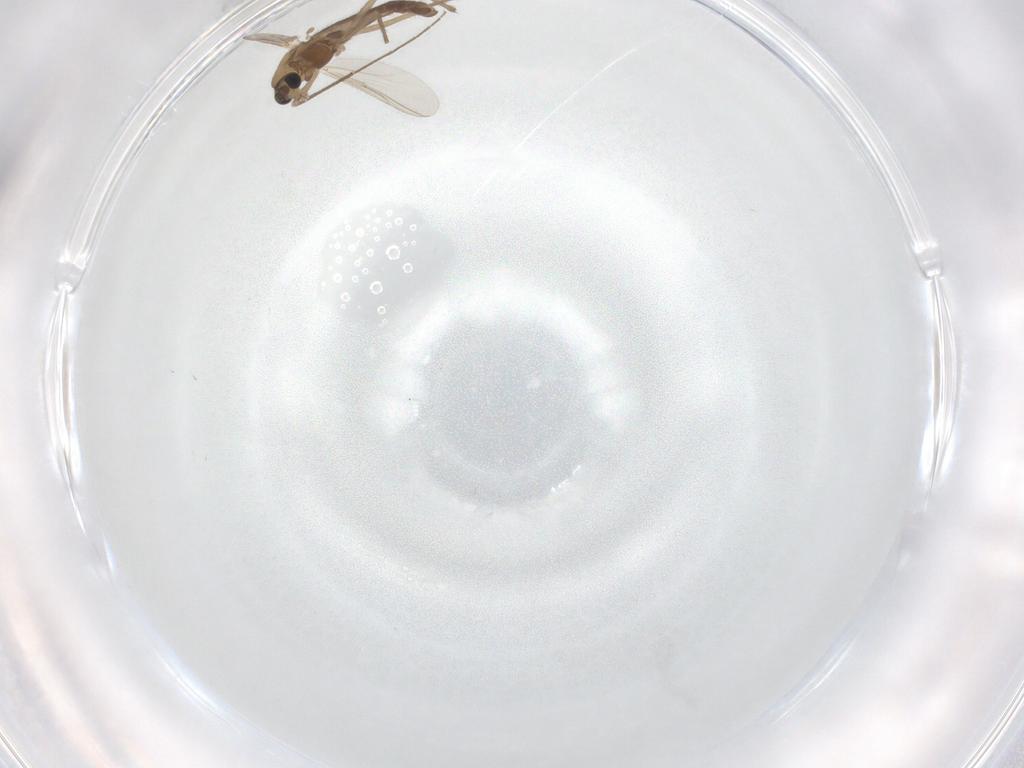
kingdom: Animalia
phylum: Arthropoda
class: Insecta
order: Diptera
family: Chironomidae
